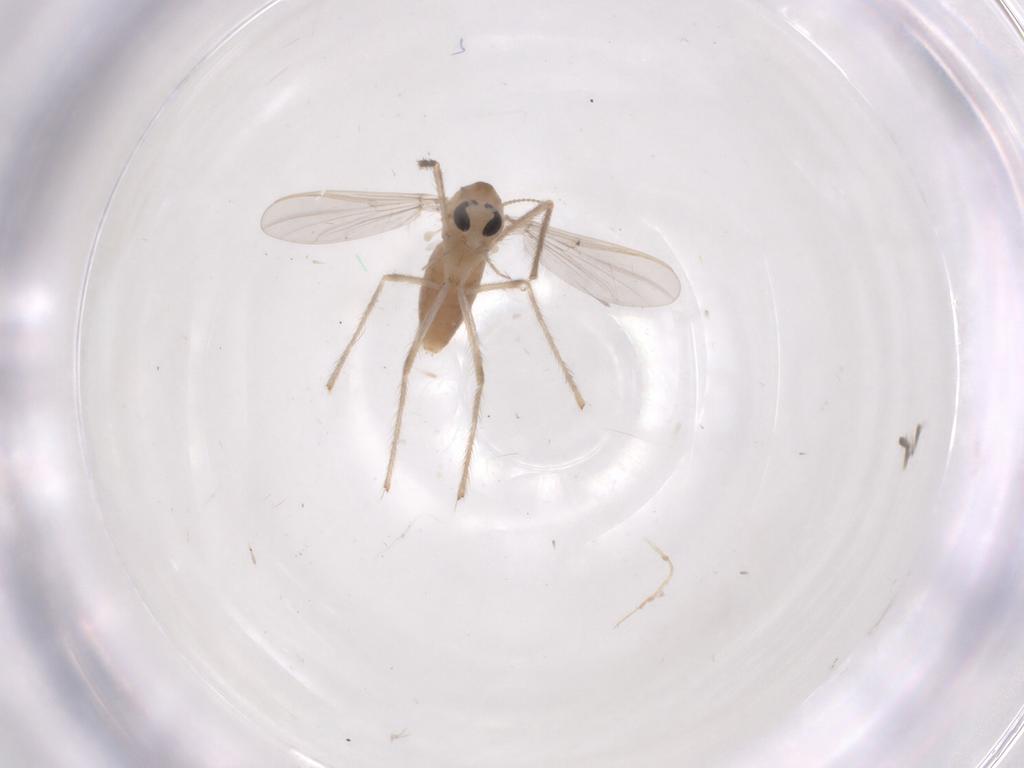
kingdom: Animalia
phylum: Arthropoda
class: Insecta
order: Diptera
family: Chironomidae
